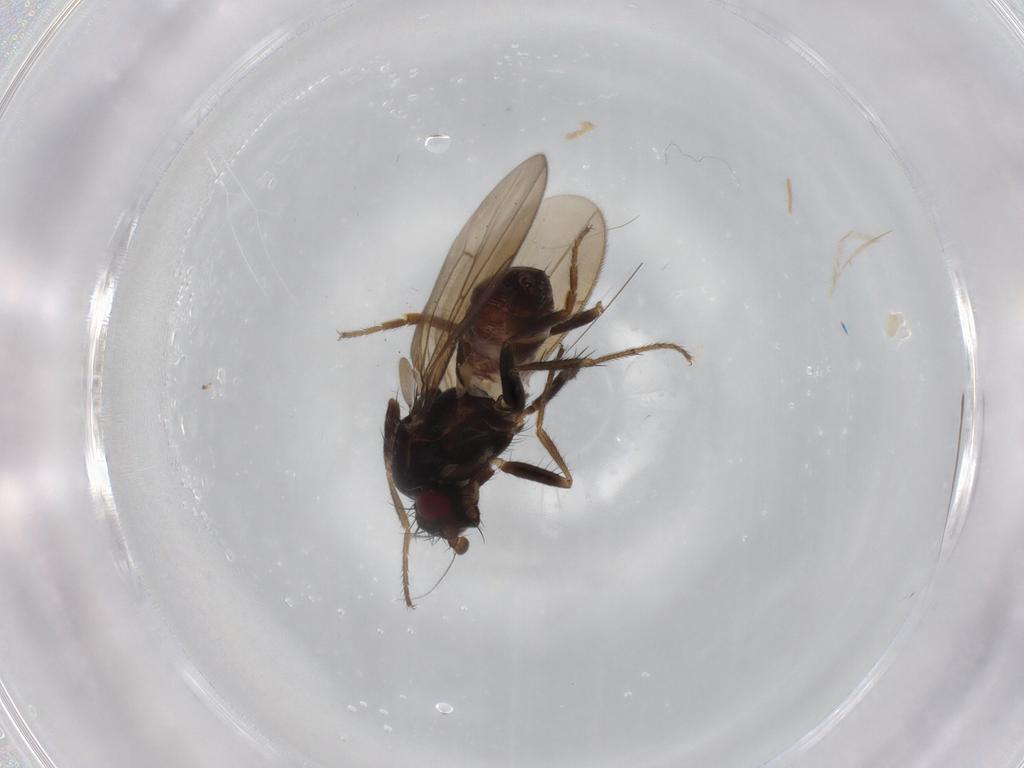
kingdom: Animalia
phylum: Arthropoda
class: Insecta
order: Diptera
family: Sphaeroceridae
